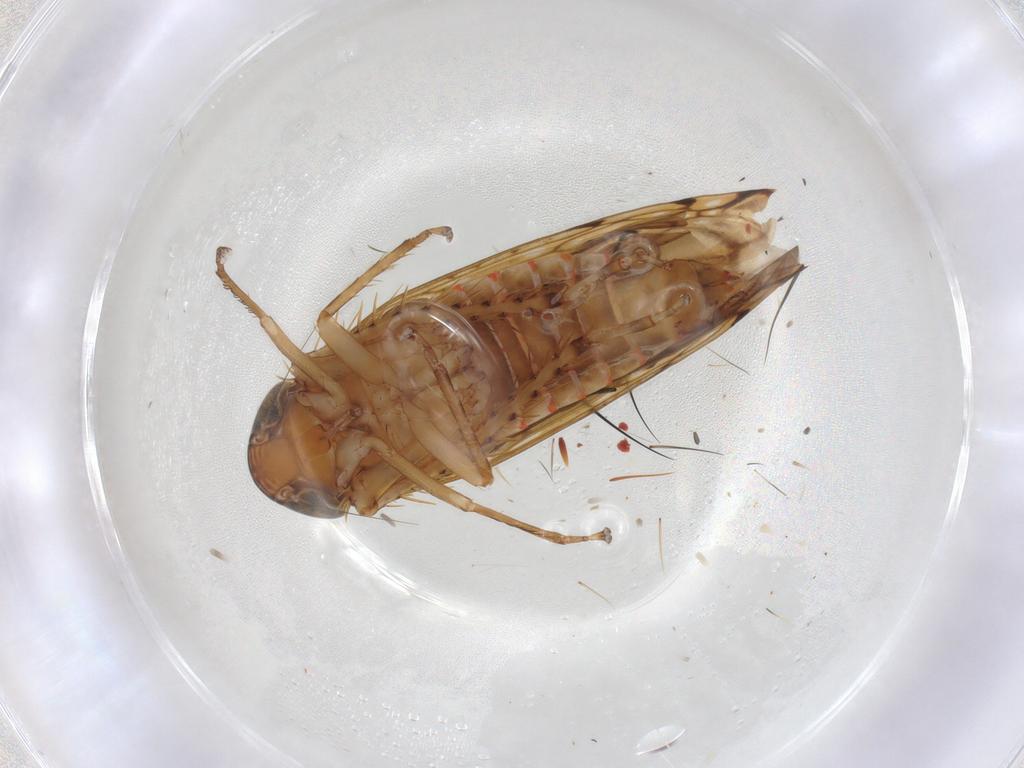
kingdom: Animalia
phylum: Arthropoda
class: Insecta
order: Hemiptera
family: Cicadellidae
